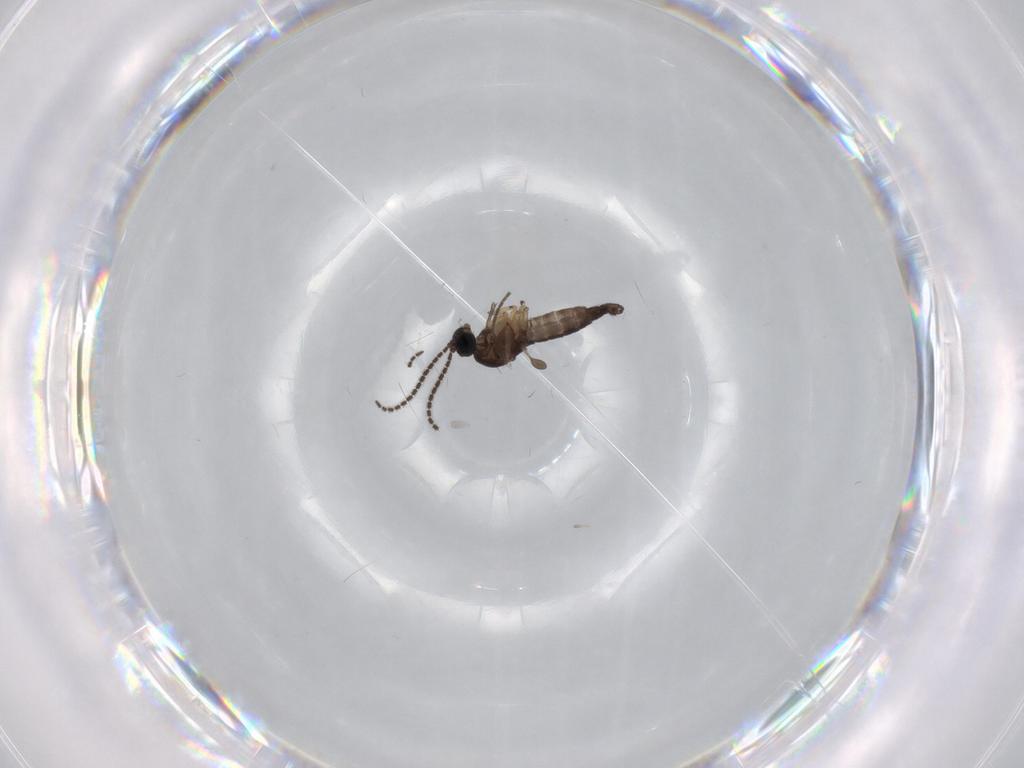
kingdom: Animalia
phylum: Arthropoda
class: Insecta
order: Diptera
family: Sciaridae
